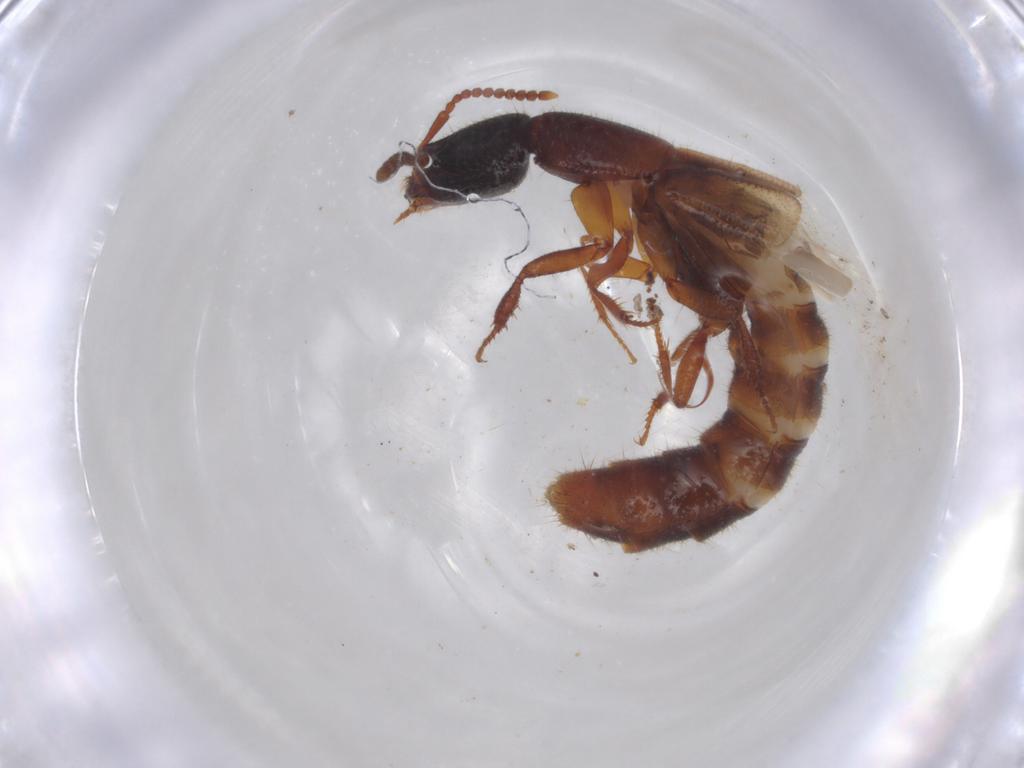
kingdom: Animalia
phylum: Arthropoda
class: Insecta
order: Coleoptera
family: Staphylinidae
